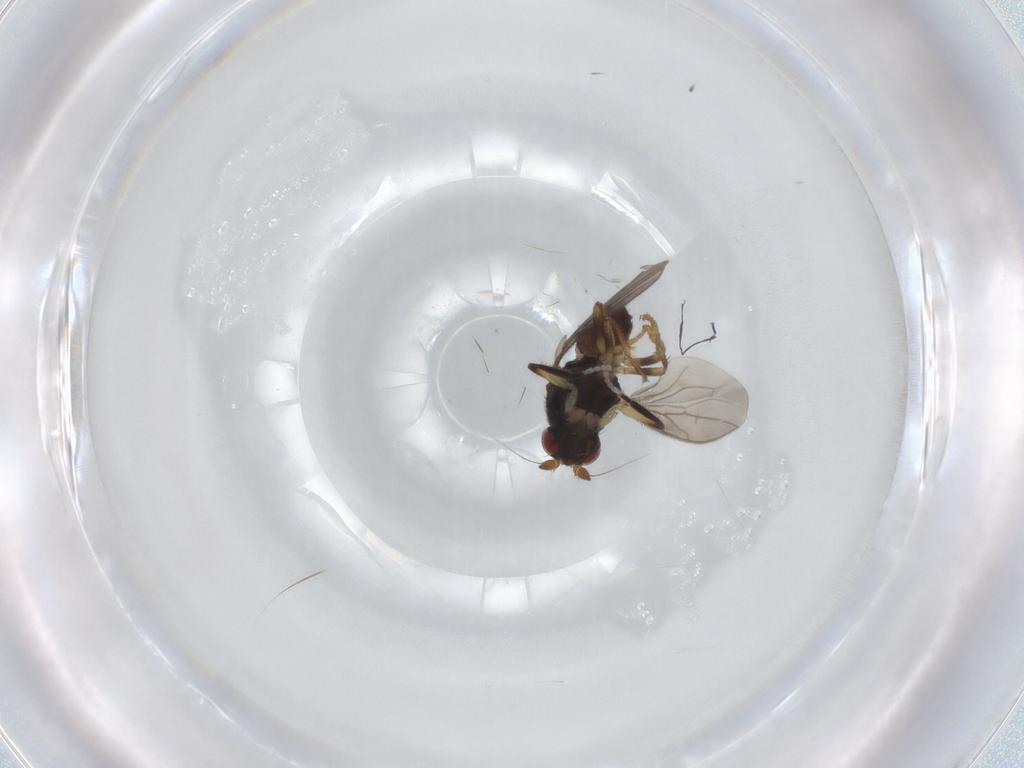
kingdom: Animalia
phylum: Arthropoda
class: Insecta
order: Diptera
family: Sphaeroceridae
